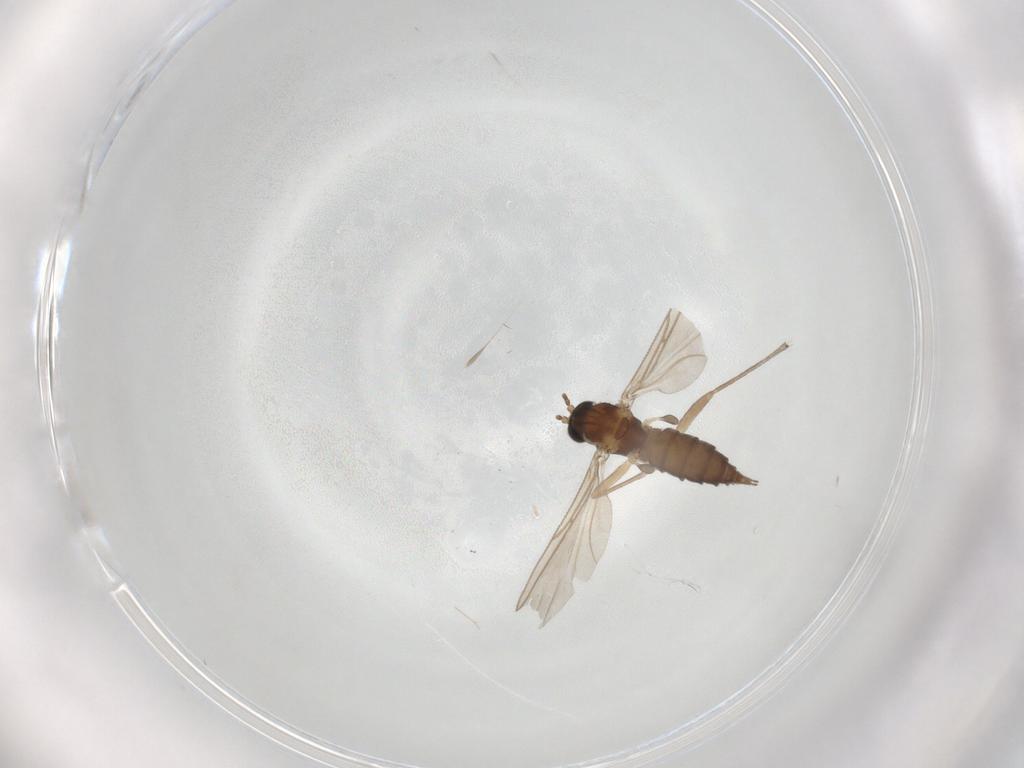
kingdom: Animalia
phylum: Arthropoda
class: Insecta
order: Diptera
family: Sciaridae
